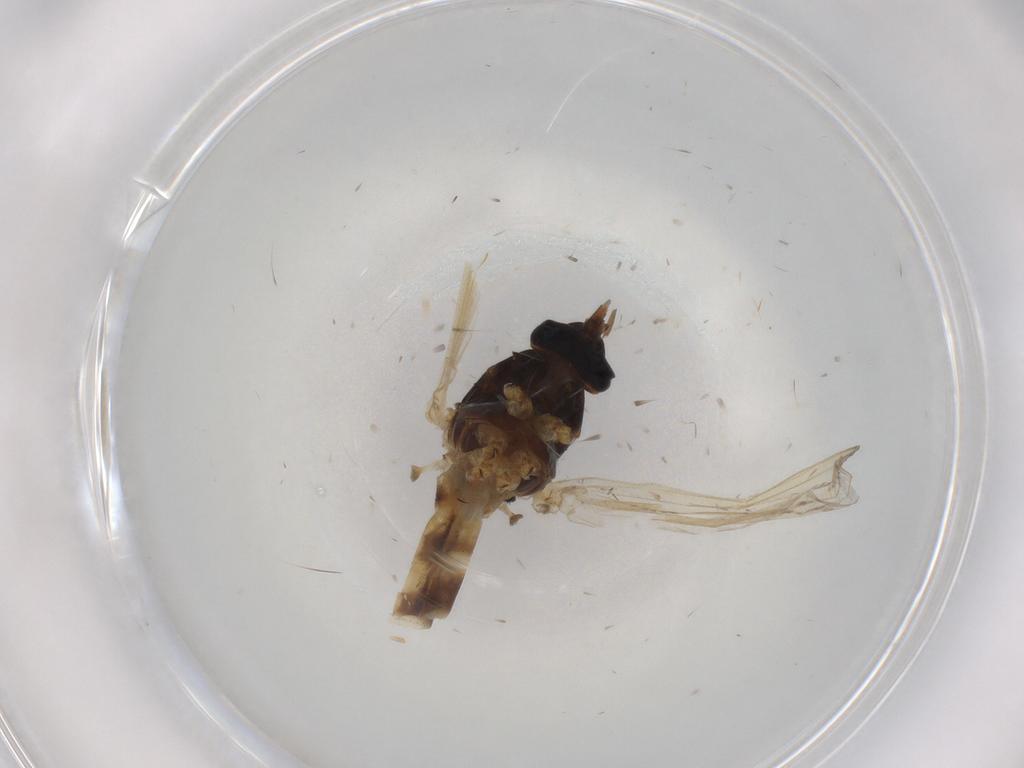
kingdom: Animalia
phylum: Arthropoda
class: Insecta
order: Diptera
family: Muscidae
